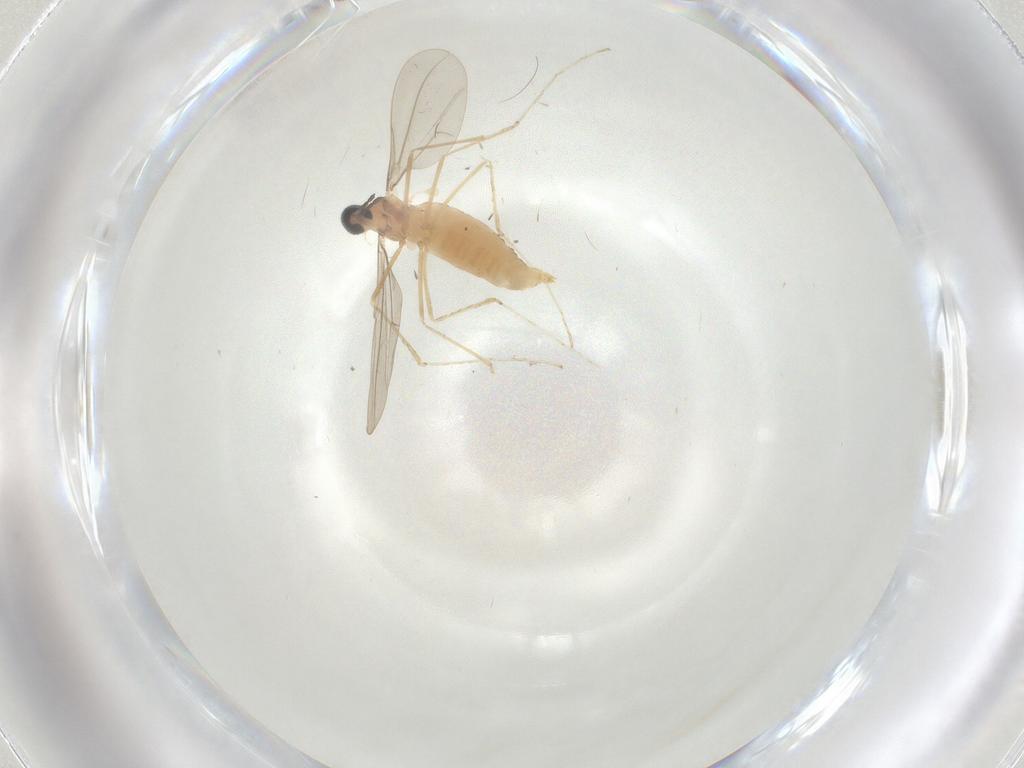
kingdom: Animalia
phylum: Arthropoda
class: Insecta
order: Diptera
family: Cecidomyiidae
